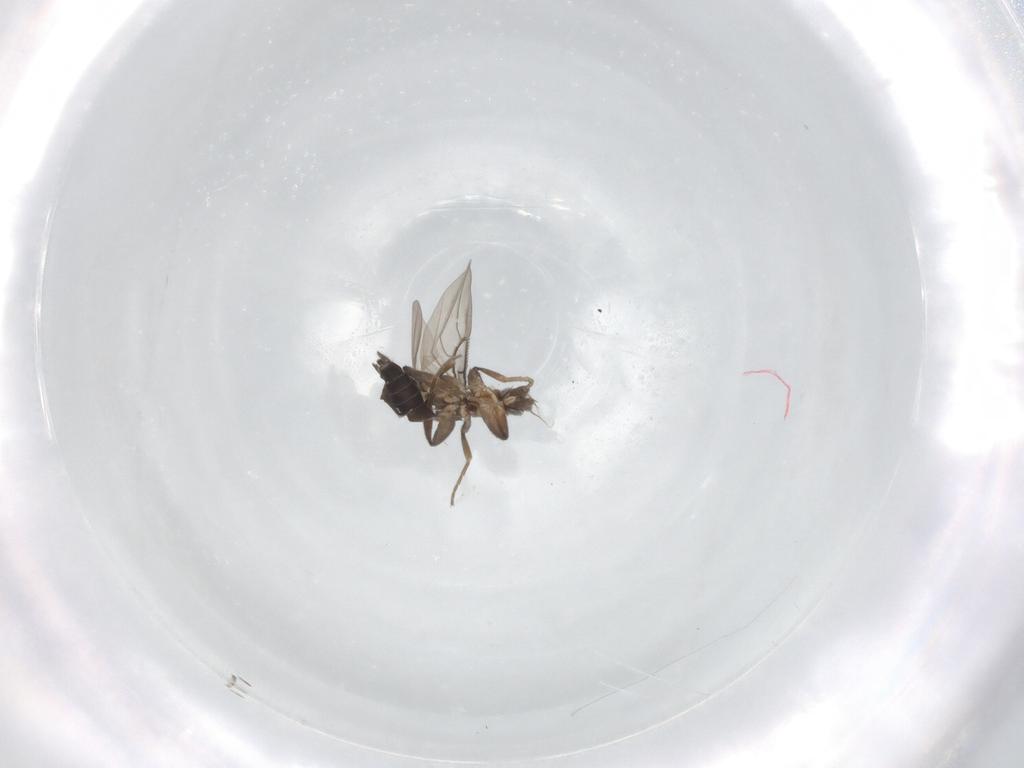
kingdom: Animalia
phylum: Arthropoda
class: Insecta
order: Diptera
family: Phoridae
